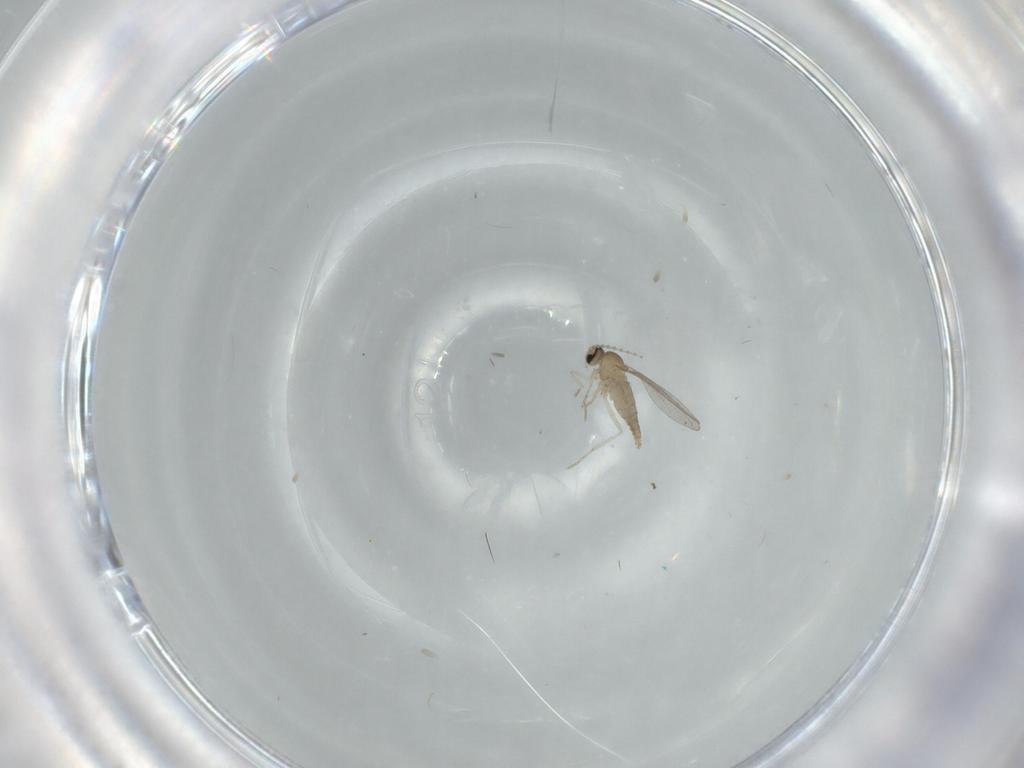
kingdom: Animalia
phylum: Arthropoda
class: Insecta
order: Diptera
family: Cecidomyiidae
